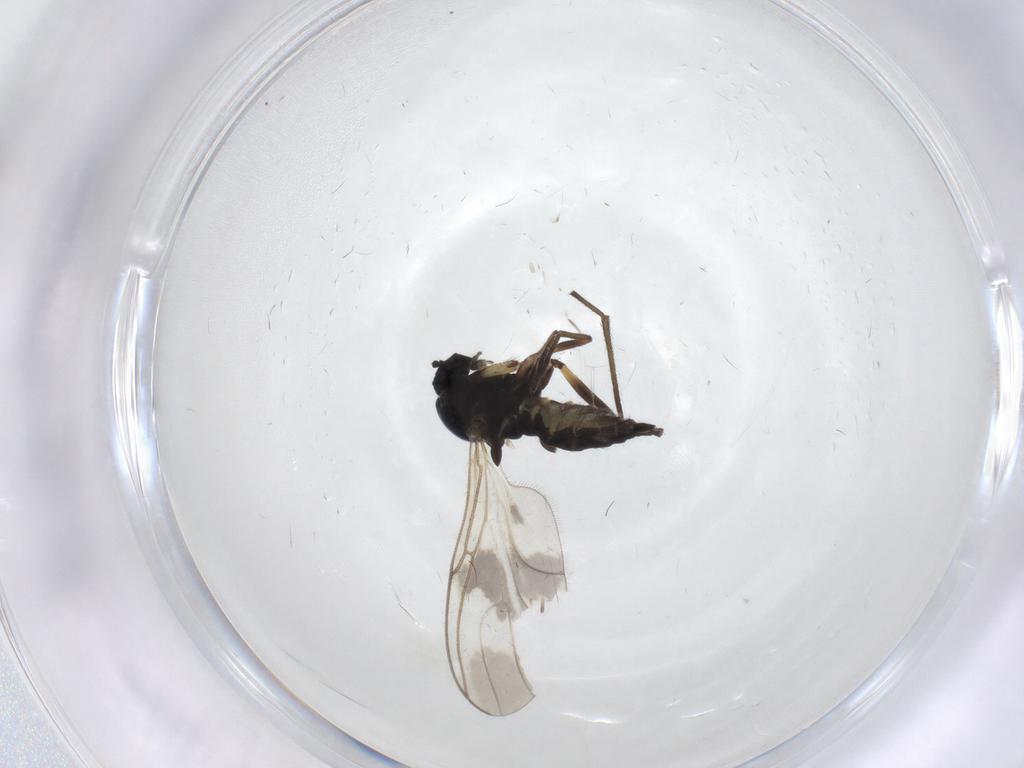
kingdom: Animalia
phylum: Arthropoda
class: Insecta
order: Diptera
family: Sciaridae
